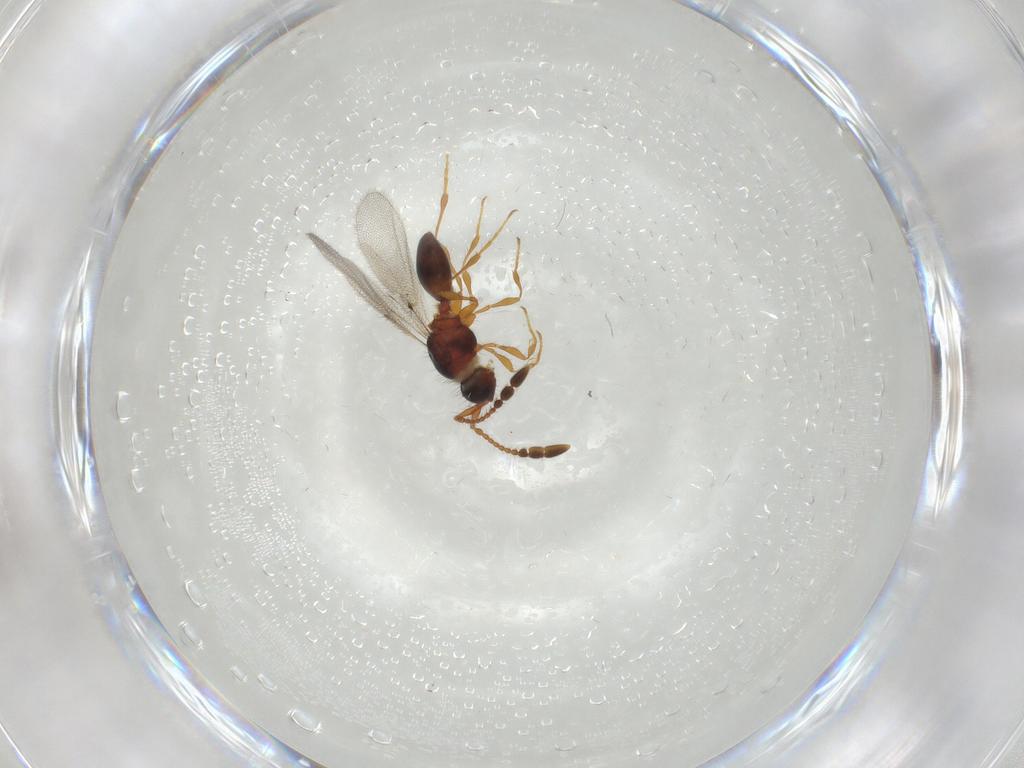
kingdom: Animalia
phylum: Arthropoda
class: Insecta
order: Hymenoptera
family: Diapriidae
